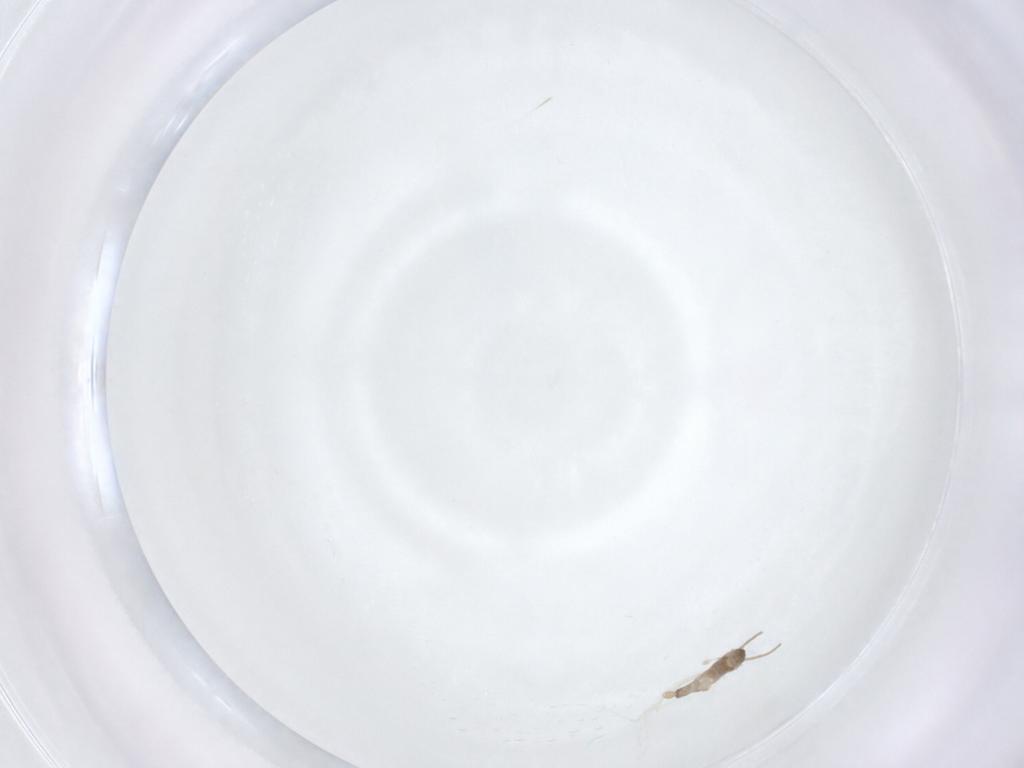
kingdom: Animalia
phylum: Arthropoda
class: Insecta
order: Diptera
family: Cecidomyiidae
